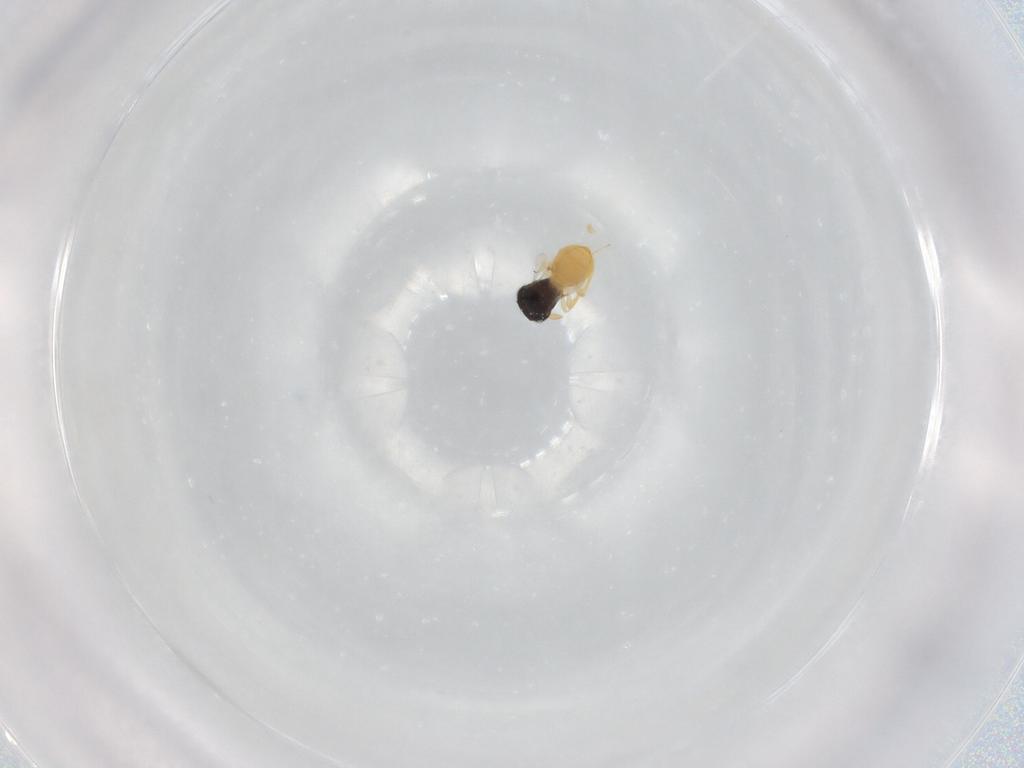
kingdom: Animalia
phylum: Arthropoda
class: Insecta
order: Hymenoptera
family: Scelionidae
